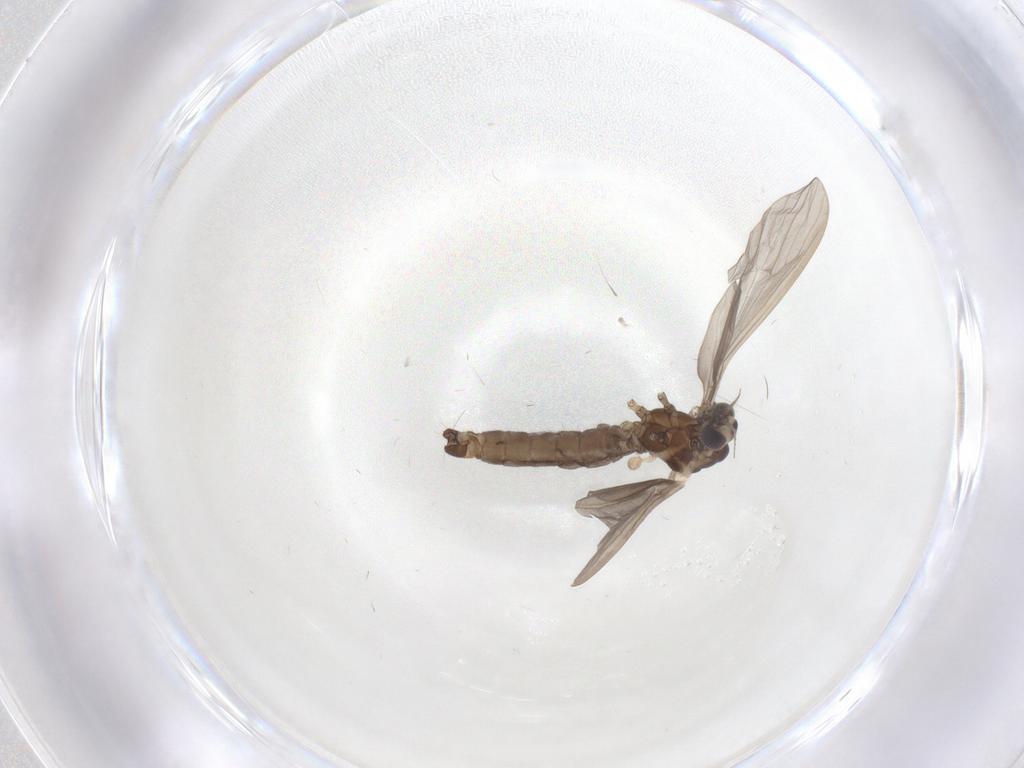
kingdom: Animalia
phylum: Arthropoda
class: Insecta
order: Diptera
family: Limoniidae
